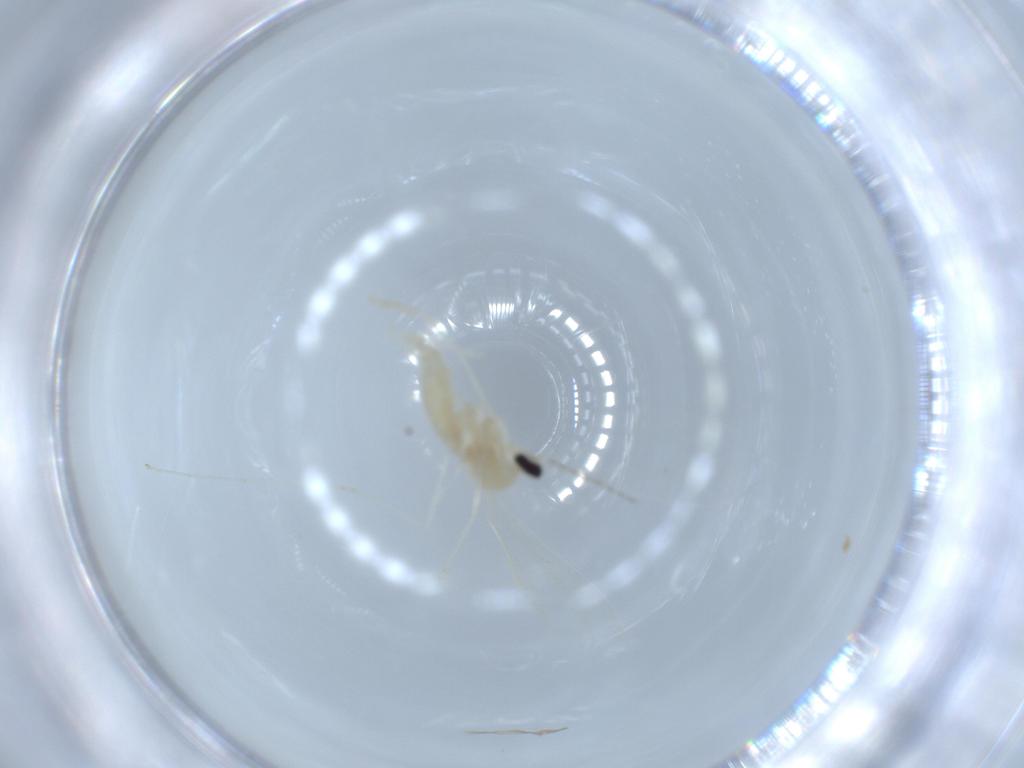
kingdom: Animalia
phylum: Arthropoda
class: Insecta
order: Diptera
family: Cecidomyiidae
